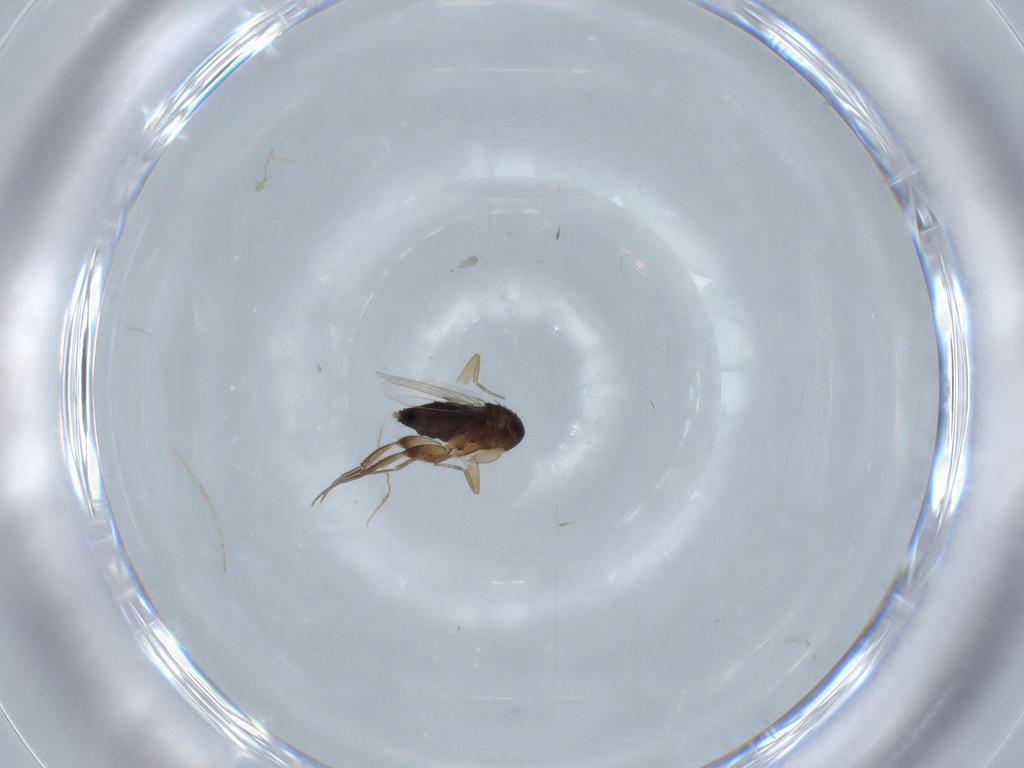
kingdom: Animalia
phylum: Arthropoda
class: Insecta
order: Diptera
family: Phoridae
